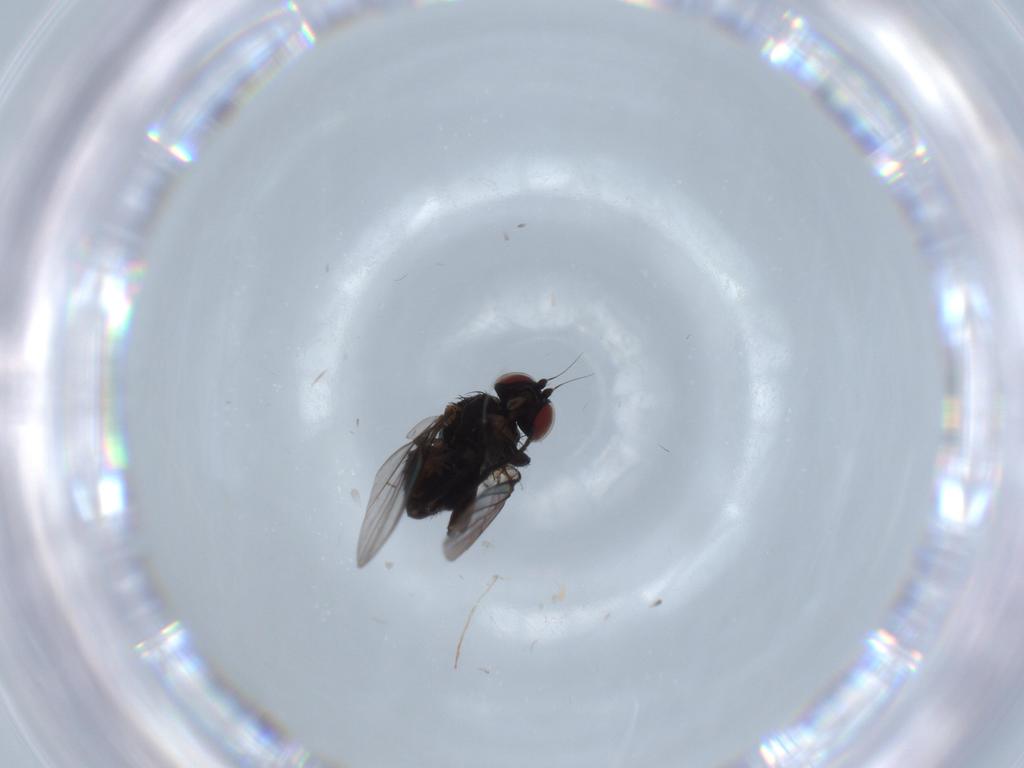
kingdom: Animalia
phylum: Arthropoda
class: Insecta
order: Diptera
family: Agromyzidae
